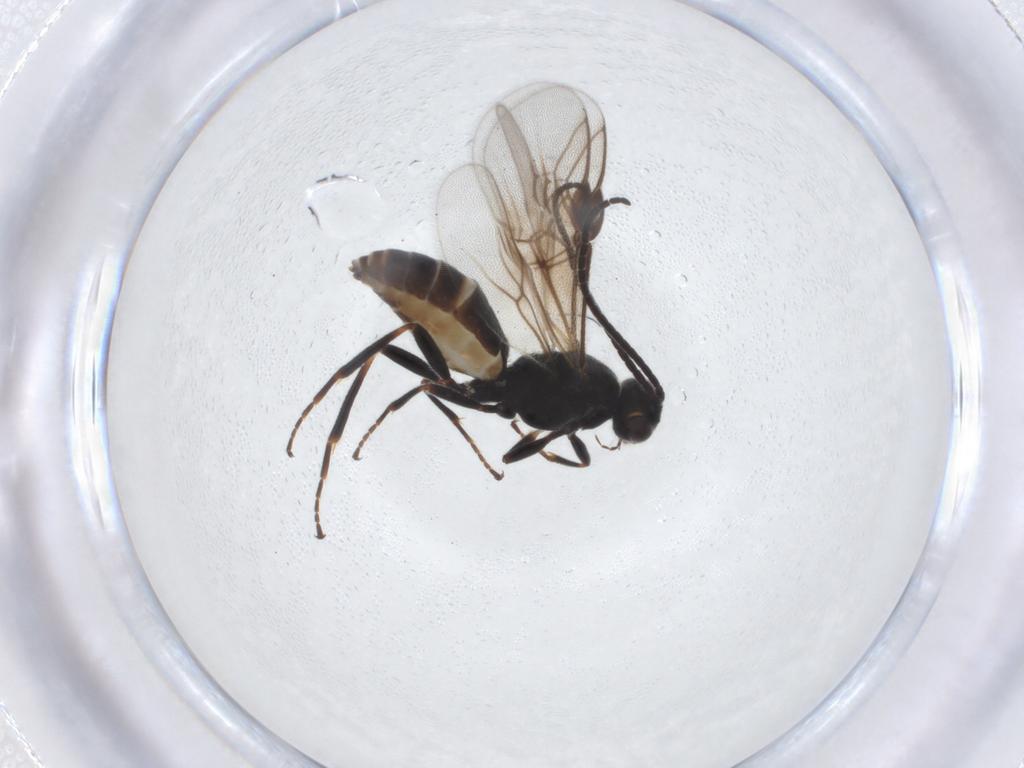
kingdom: Animalia
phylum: Arthropoda
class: Insecta
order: Hymenoptera
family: Braconidae
